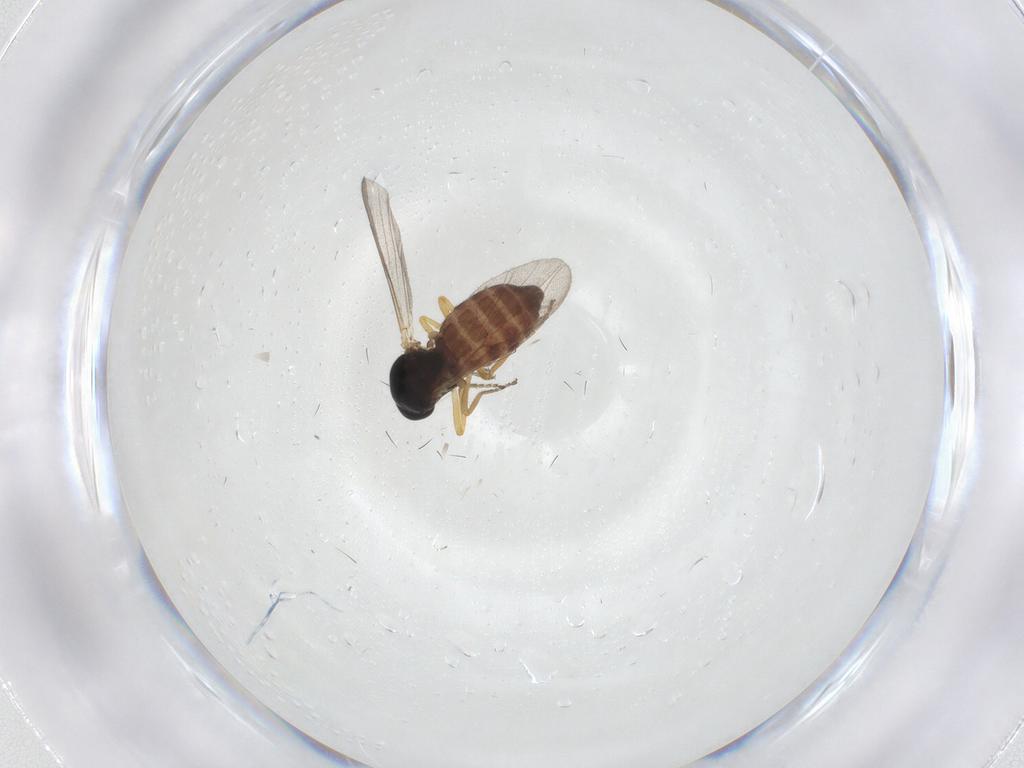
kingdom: Animalia
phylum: Arthropoda
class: Insecta
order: Diptera
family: Ceratopogonidae
